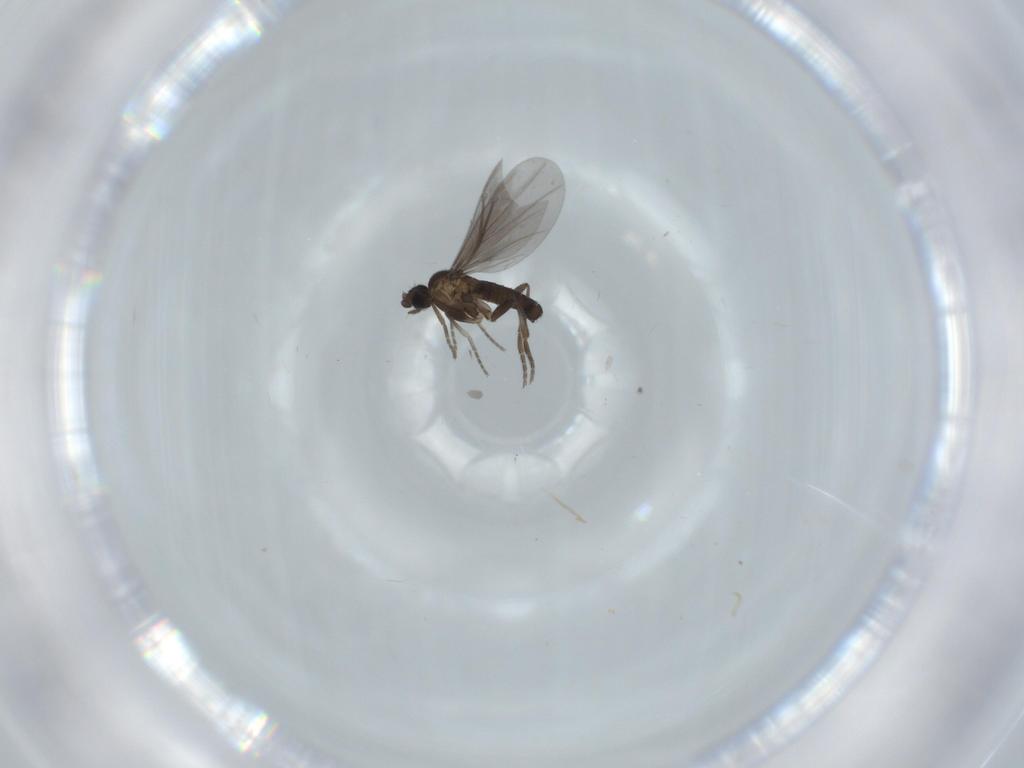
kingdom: Animalia
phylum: Arthropoda
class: Insecta
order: Diptera
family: Phoridae
